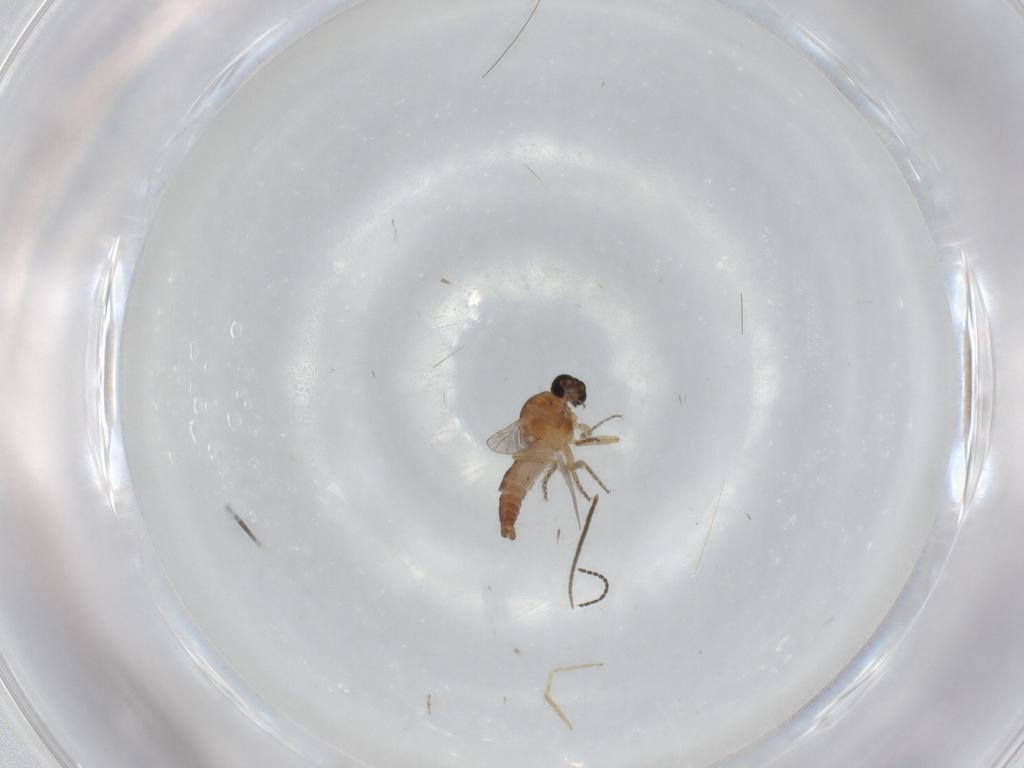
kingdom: Animalia
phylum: Arthropoda
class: Insecta
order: Diptera
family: Ceratopogonidae
